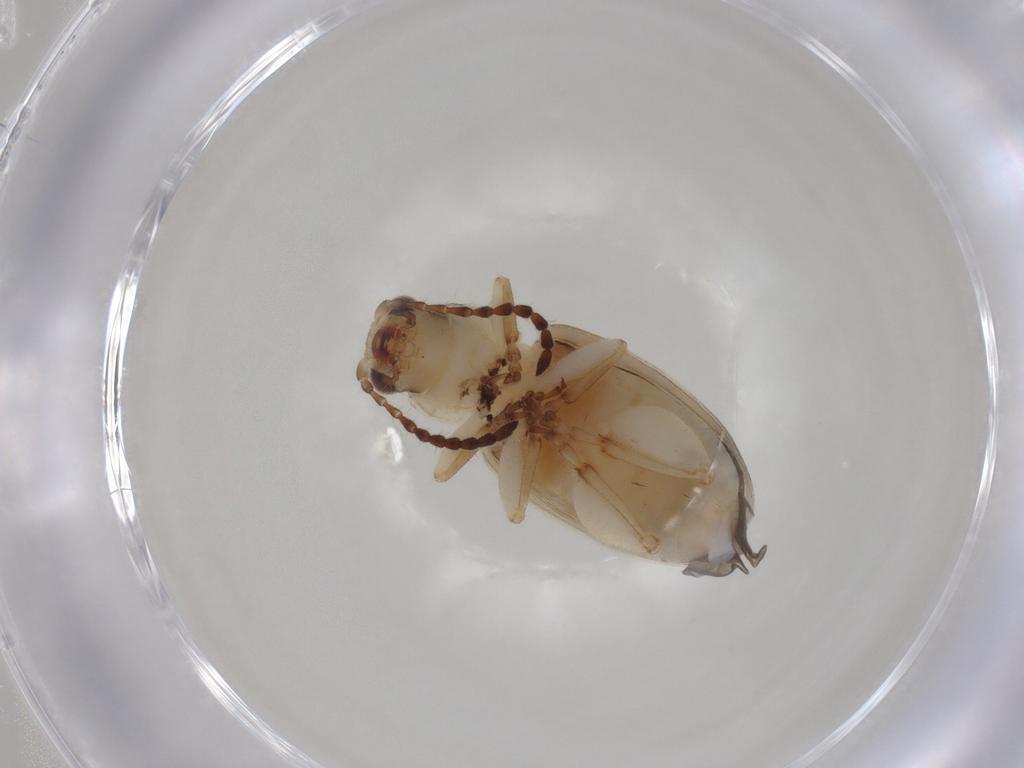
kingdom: Animalia
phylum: Arthropoda
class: Insecta
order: Coleoptera
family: Chrysomelidae
